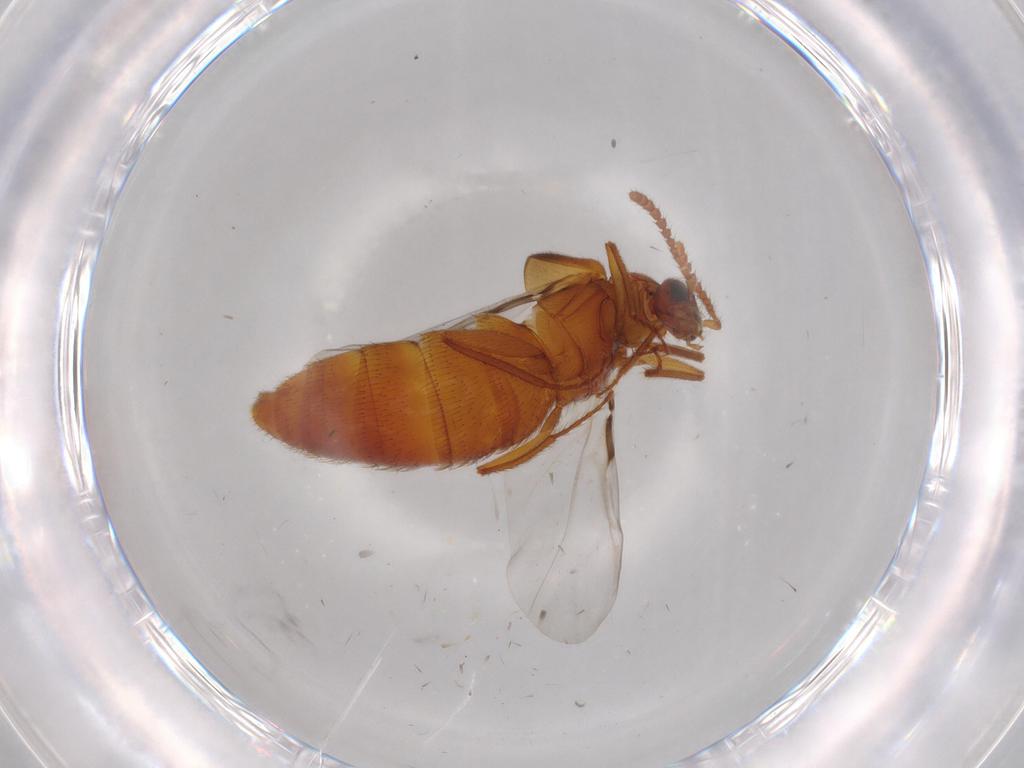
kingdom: Animalia
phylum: Arthropoda
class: Insecta
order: Coleoptera
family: Staphylinidae
